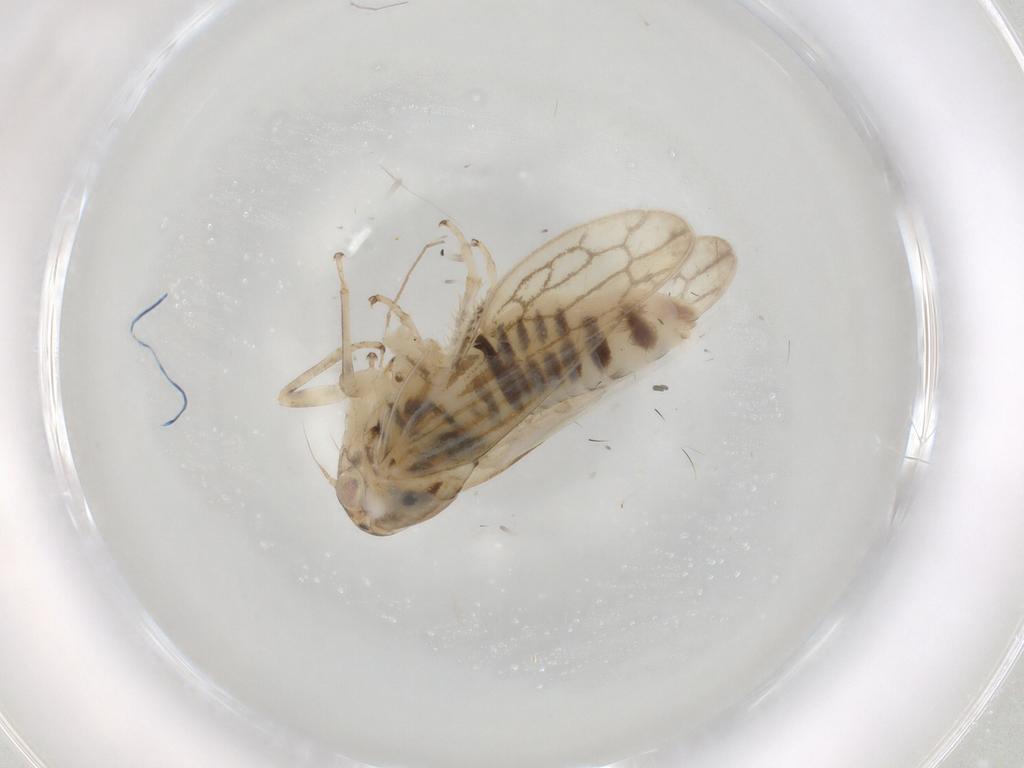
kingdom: Animalia
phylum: Arthropoda
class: Insecta
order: Hemiptera
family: Cicadellidae
